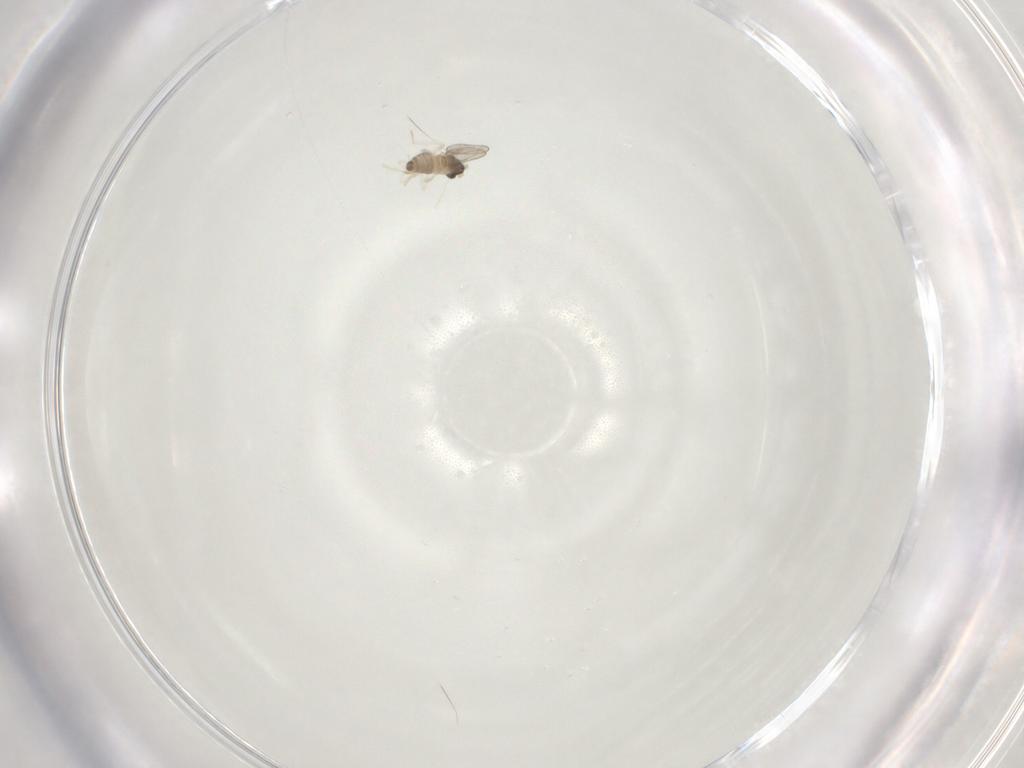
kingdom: Animalia
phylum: Arthropoda
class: Insecta
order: Diptera
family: Cecidomyiidae
